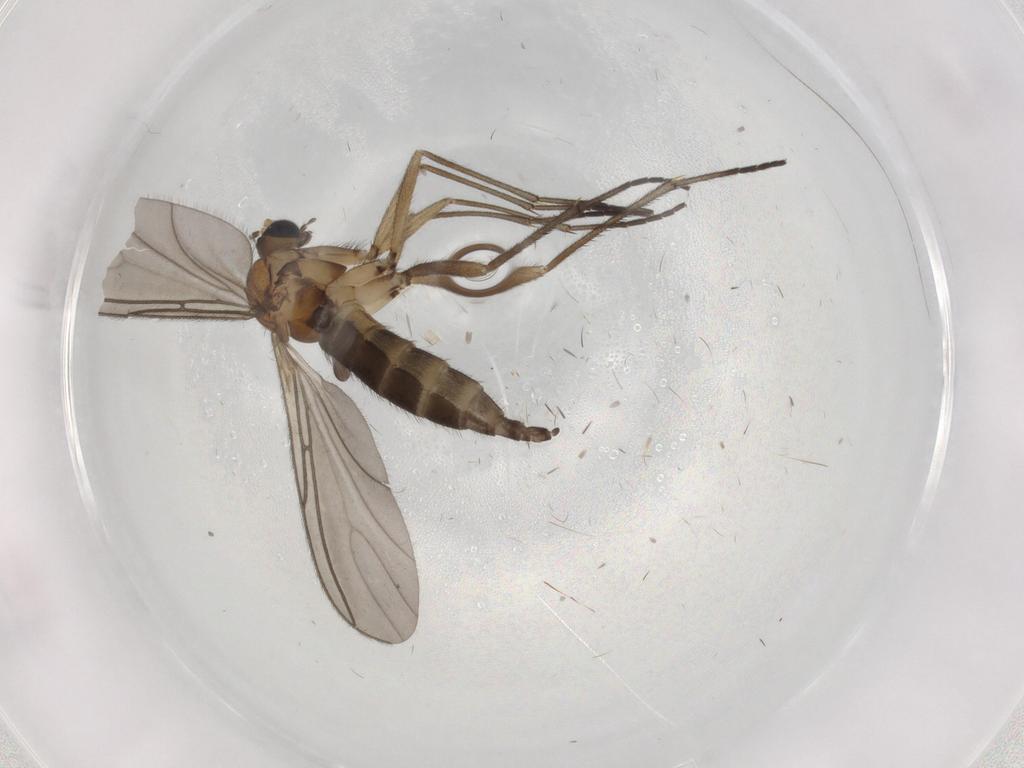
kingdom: Animalia
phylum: Arthropoda
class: Insecta
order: Diptera
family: Sciaridae
